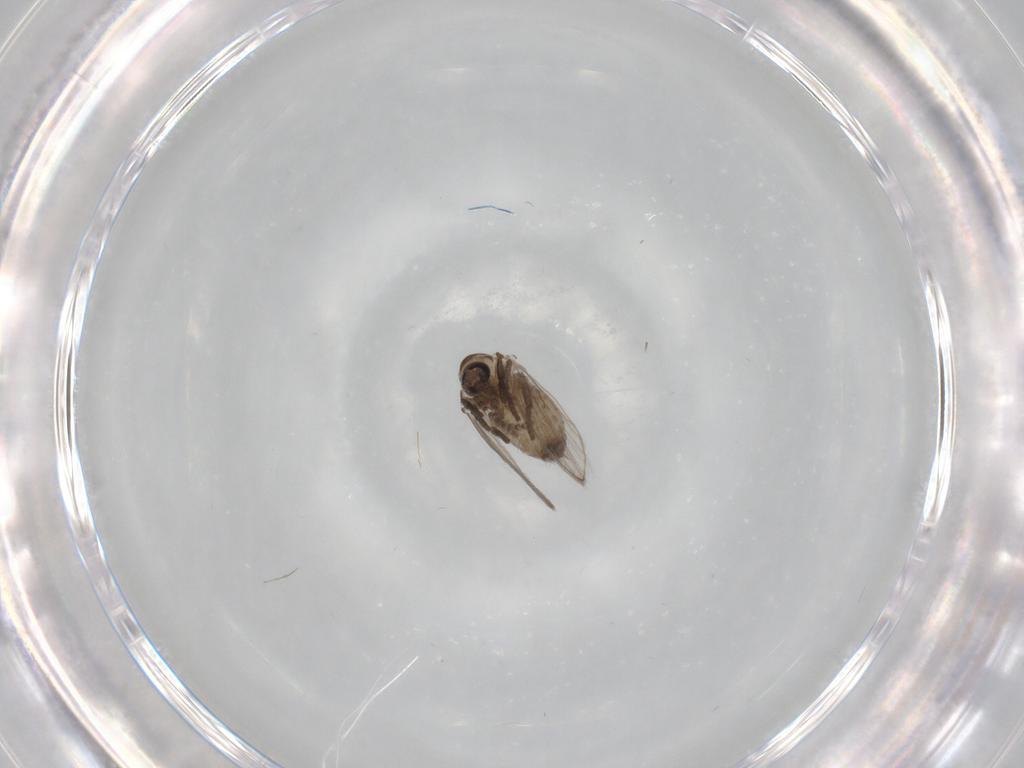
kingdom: Animalia
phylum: Arthropoda
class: Insecta
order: Diptera
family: Psychodidae
